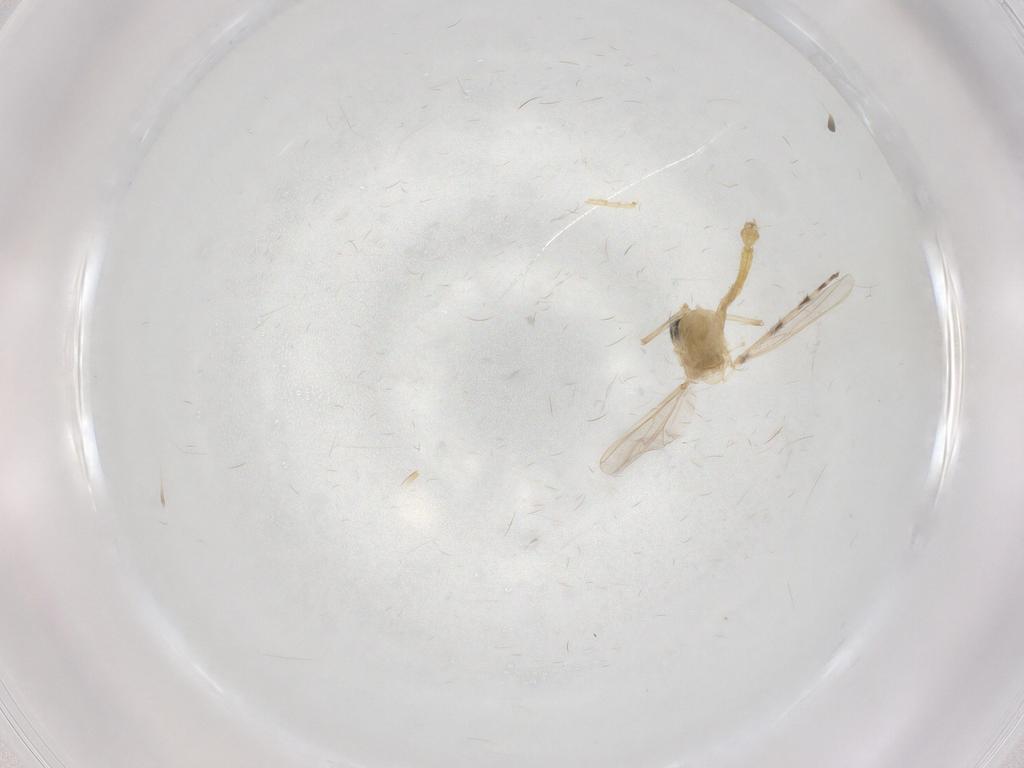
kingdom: Animalia
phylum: Arthropoda
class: Insecta
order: Diptera
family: Chironomidae
